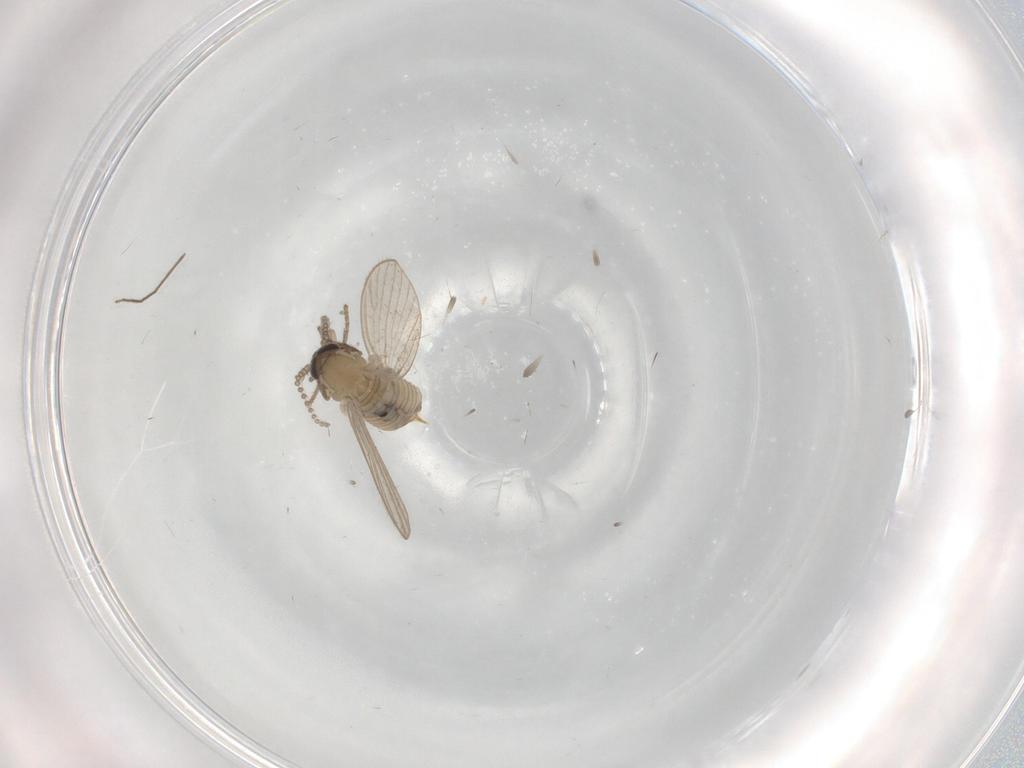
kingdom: Animalia
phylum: Arthropoda
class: Insecta
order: Diptera
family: Psychodidae
